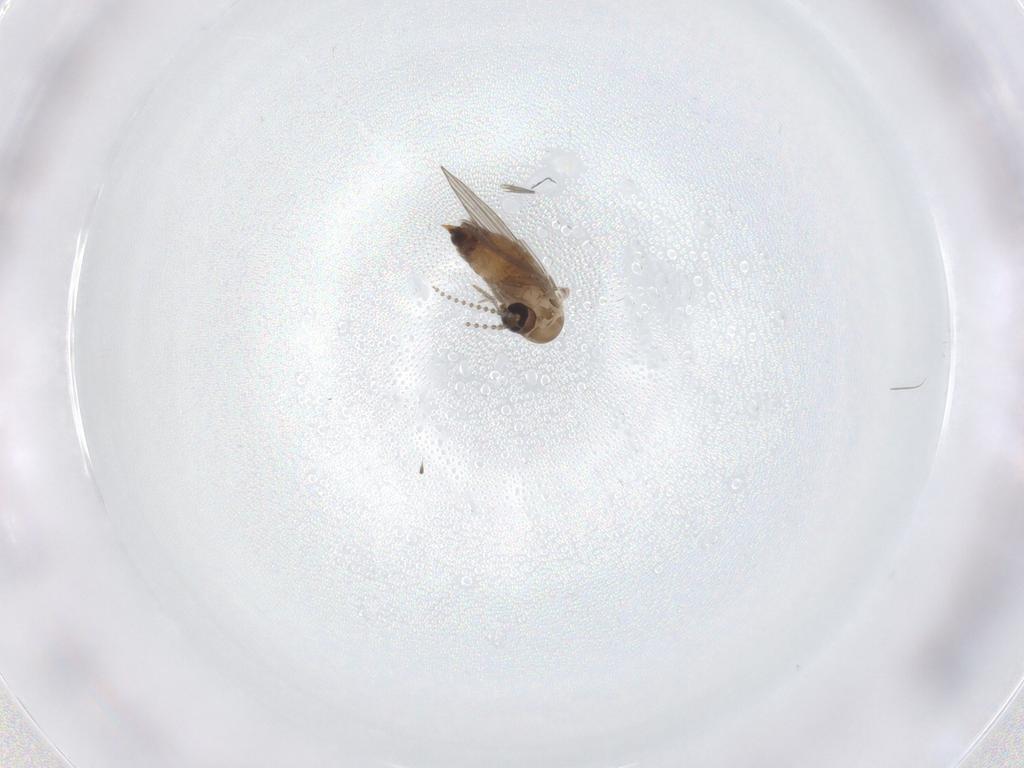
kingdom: Animalia
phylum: Arthropoda
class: Insecta
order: Diptera
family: Psychodidae
